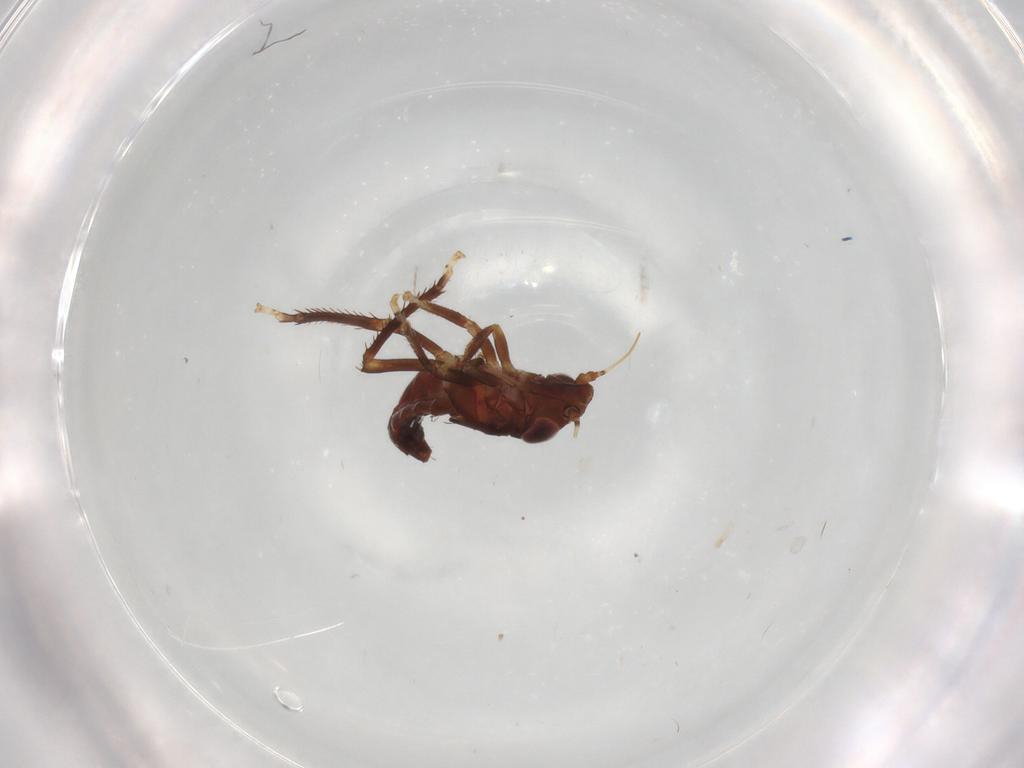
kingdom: Animalia
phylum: Arthropoda
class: Insecta
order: Hemiptera
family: Cicadellidae
